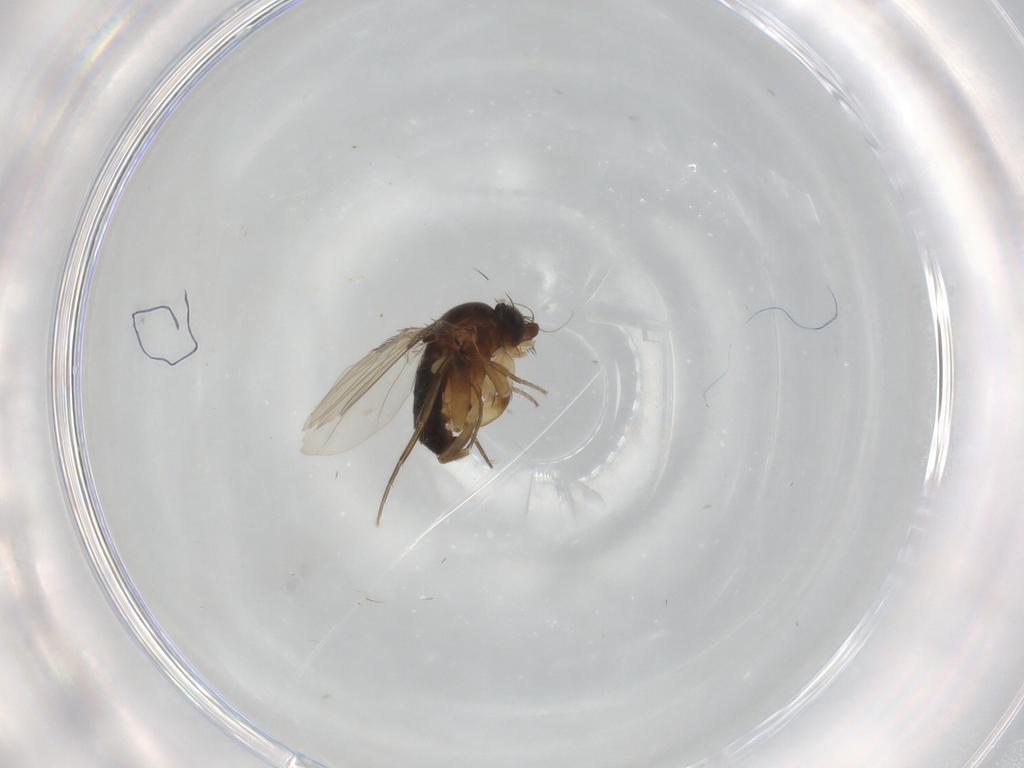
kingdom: Animalia
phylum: Arthropoda
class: Insecta
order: Diptera
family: Phoridae
